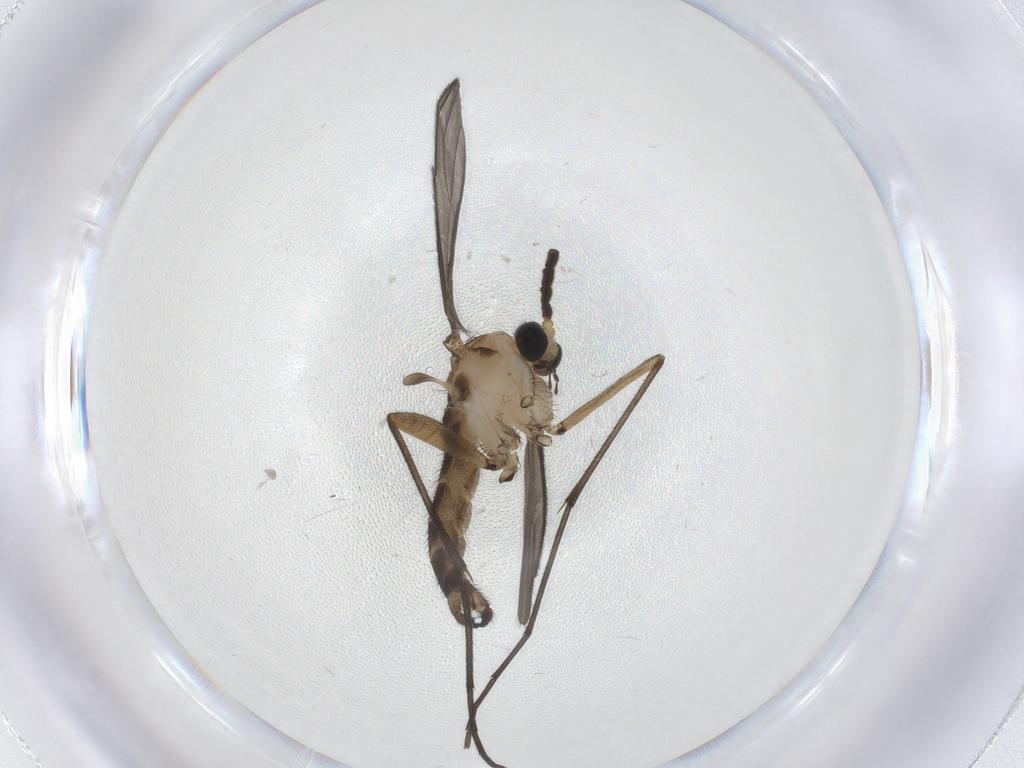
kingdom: Animalia
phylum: Arthropoda
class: Insecta
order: Diptera
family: Sciaridae
